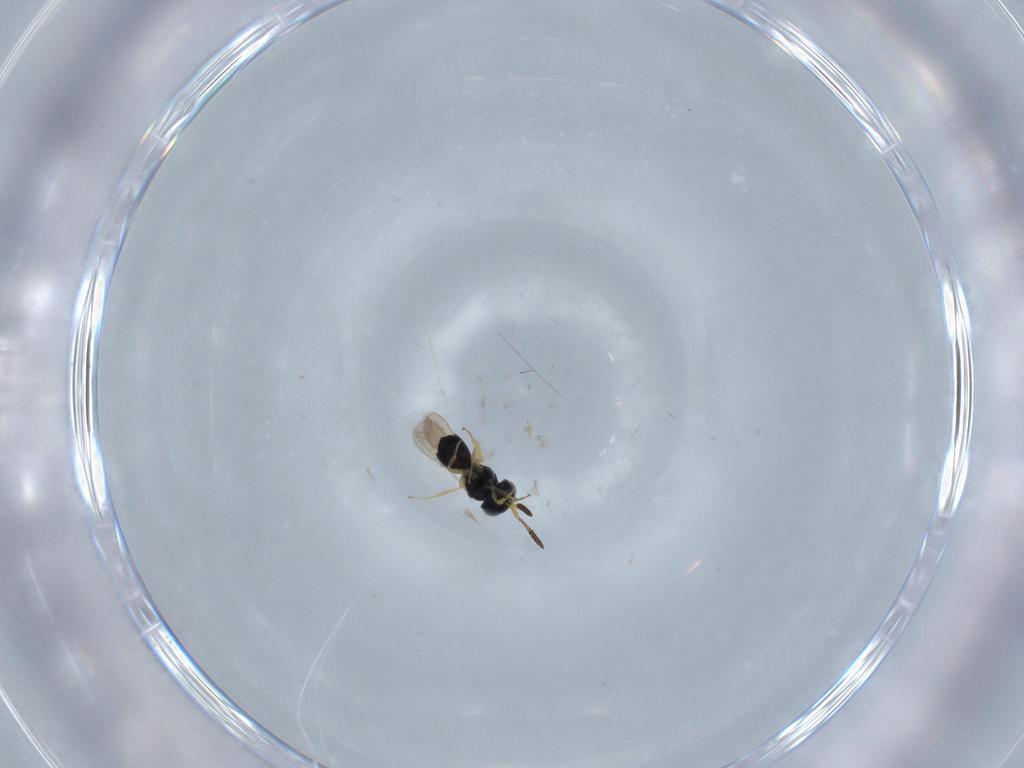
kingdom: Animalia
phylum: Arthropoda
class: Insecta
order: Hymenoptera
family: Scelionidae
